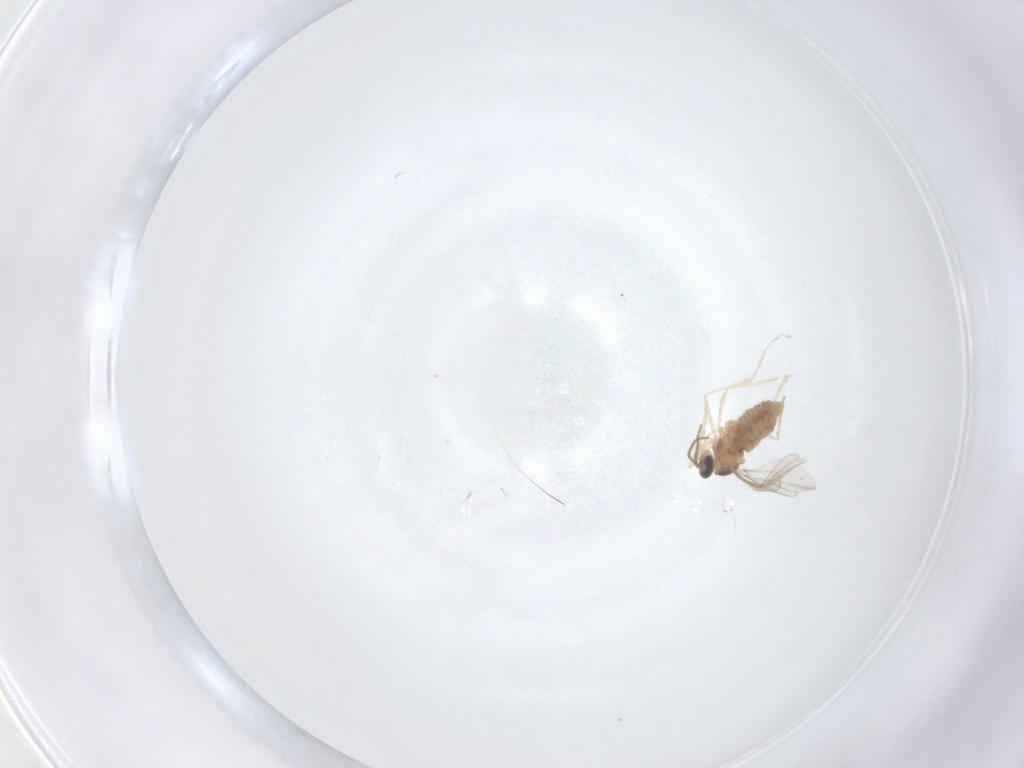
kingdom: Animalia
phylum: Arthropoda
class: Insecta
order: Diptera
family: Cecidomyiidae
